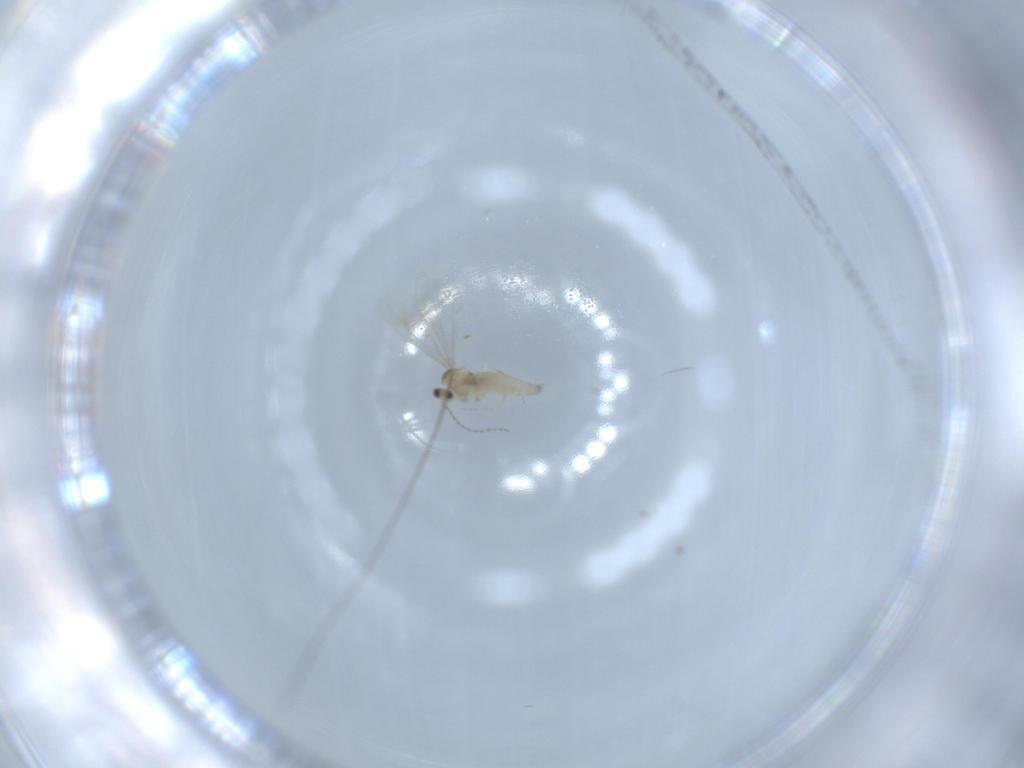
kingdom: Animalia
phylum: Arthropoda
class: Insecta
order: Diptera
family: Cecidomyiidae
